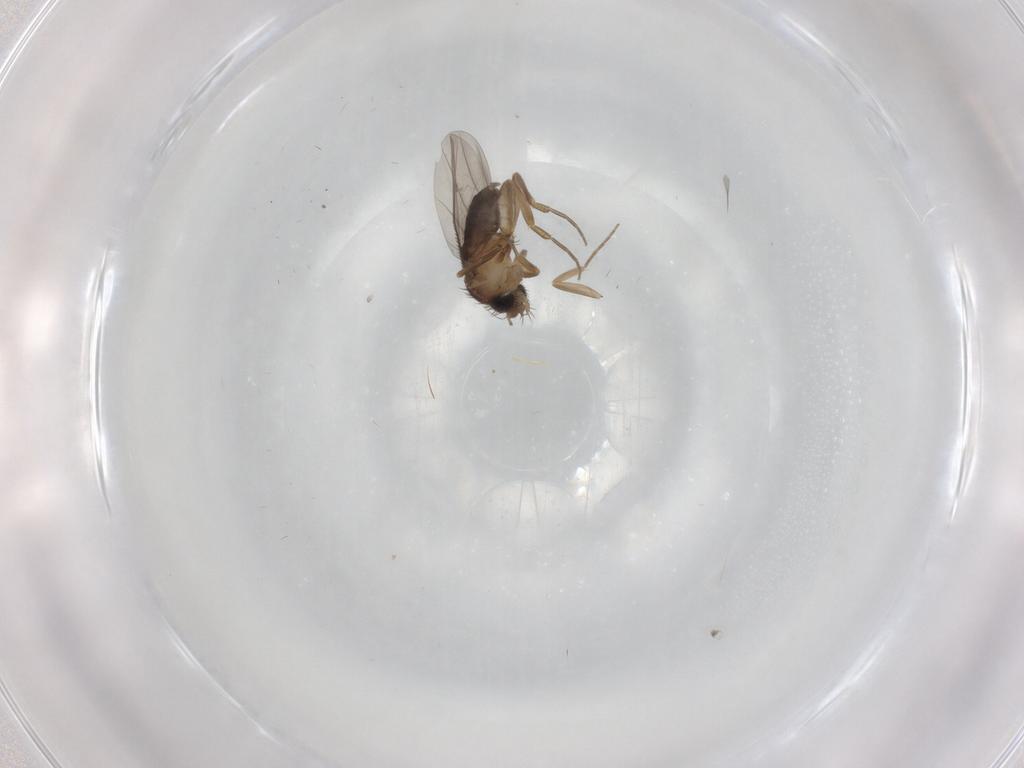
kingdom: Animalia
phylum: Arthropoda
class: Insecta
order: Diptera
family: Chironomidae
